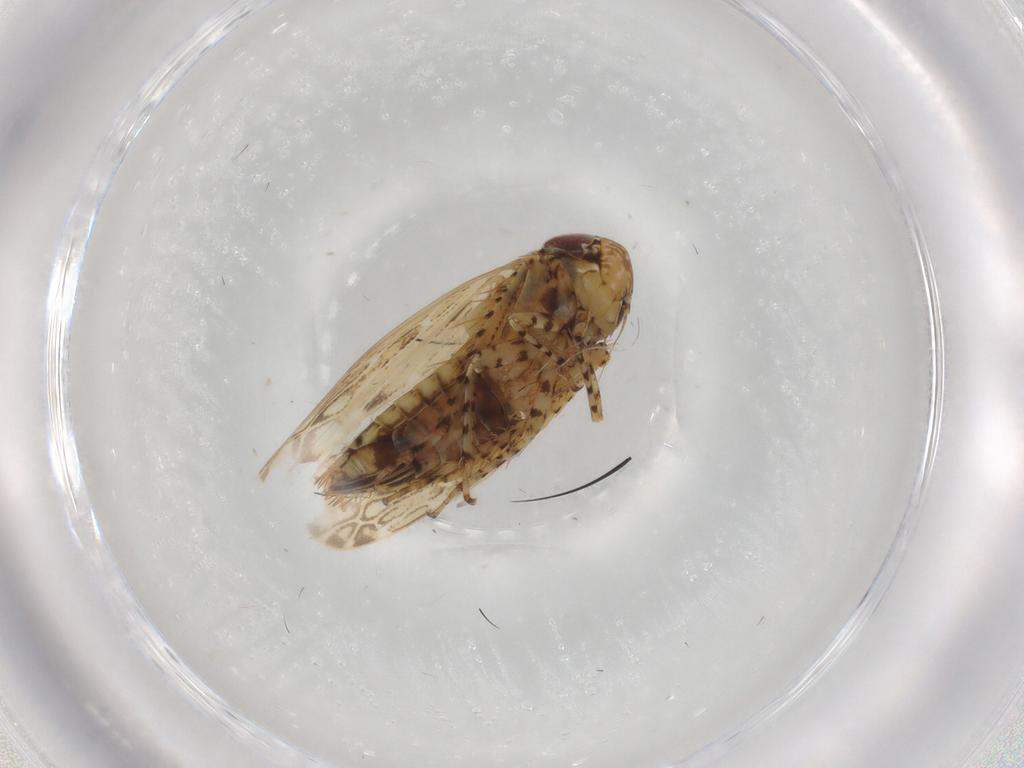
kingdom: Animalia
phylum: Arthropoda
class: Insecta
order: Hemiptera
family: Cicadellidae
